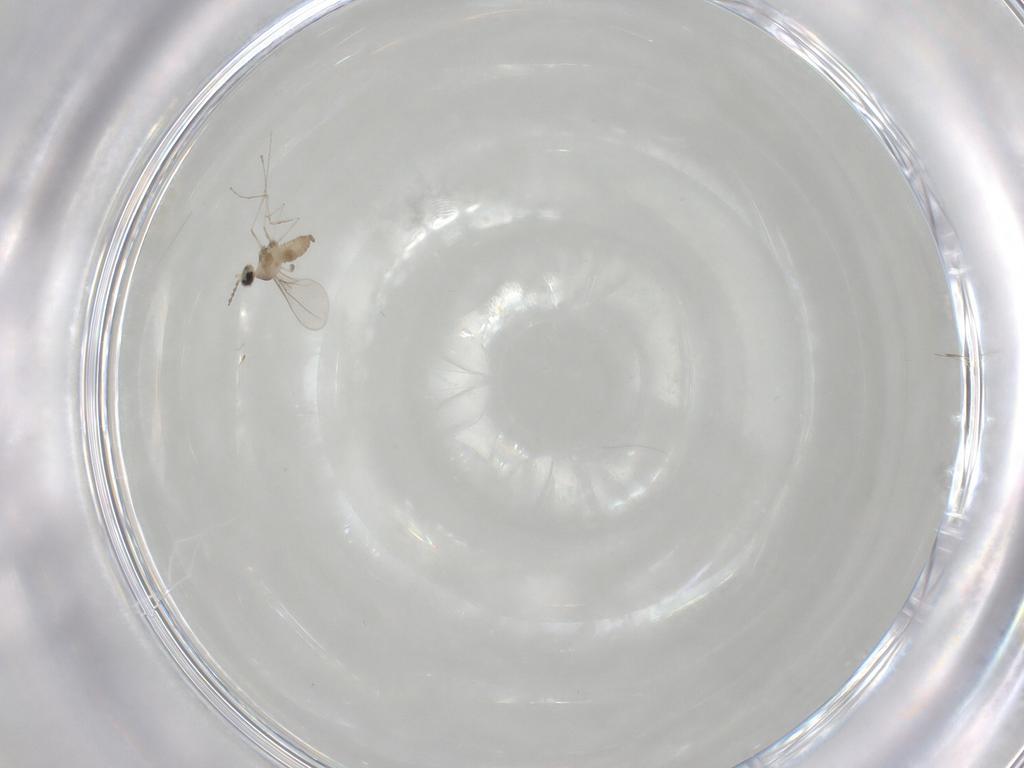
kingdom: Animalia
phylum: Arthropoda
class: Insecta
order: Diptera
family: Cecidomyiidae
